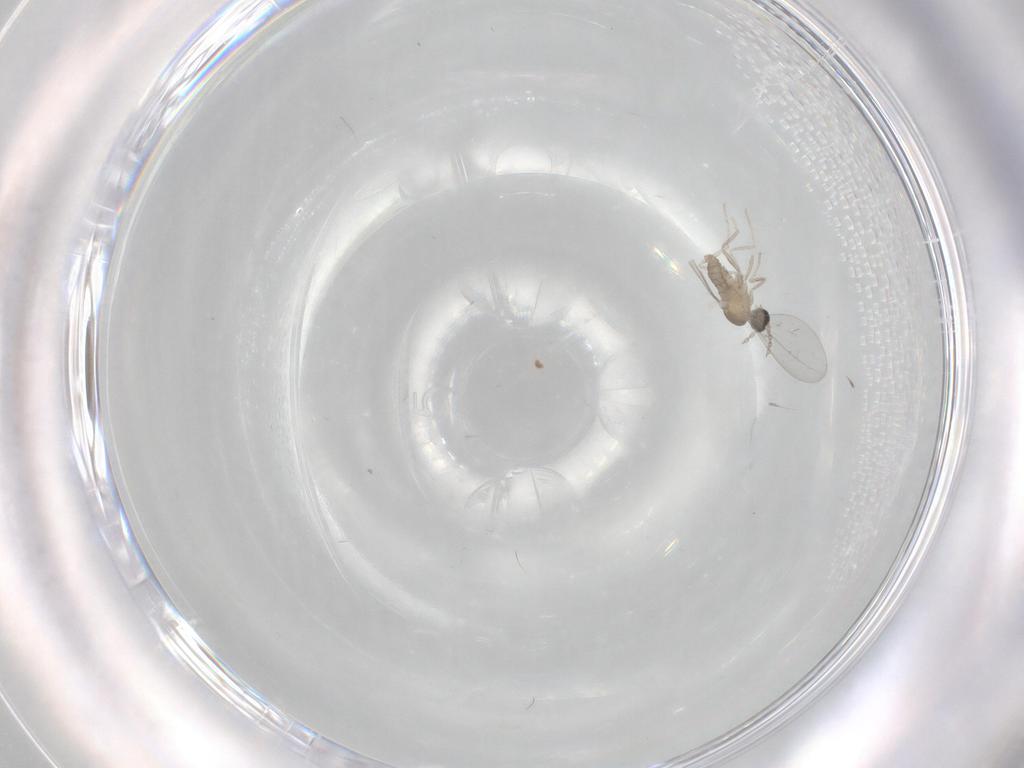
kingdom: Animalia
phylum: Arthropoda
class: Insecta
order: Diptera
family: Cecidomyiidae
